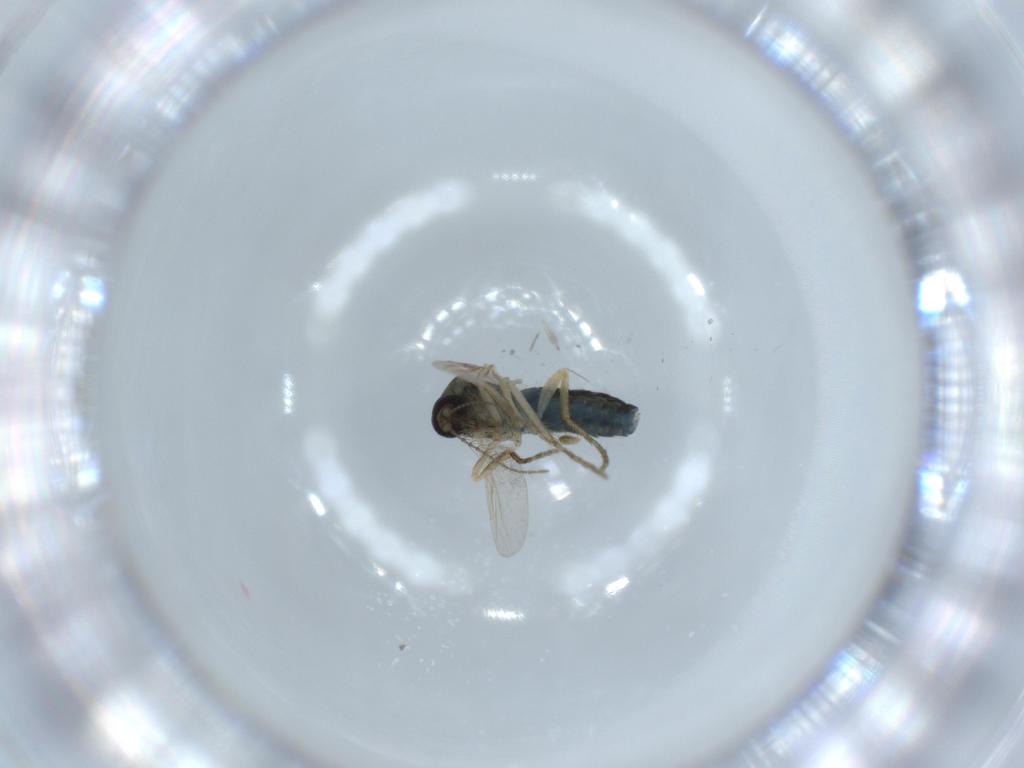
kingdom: Animalia
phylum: Arthropoda
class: Insecta
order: Diptera
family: Ceratopogonidae
